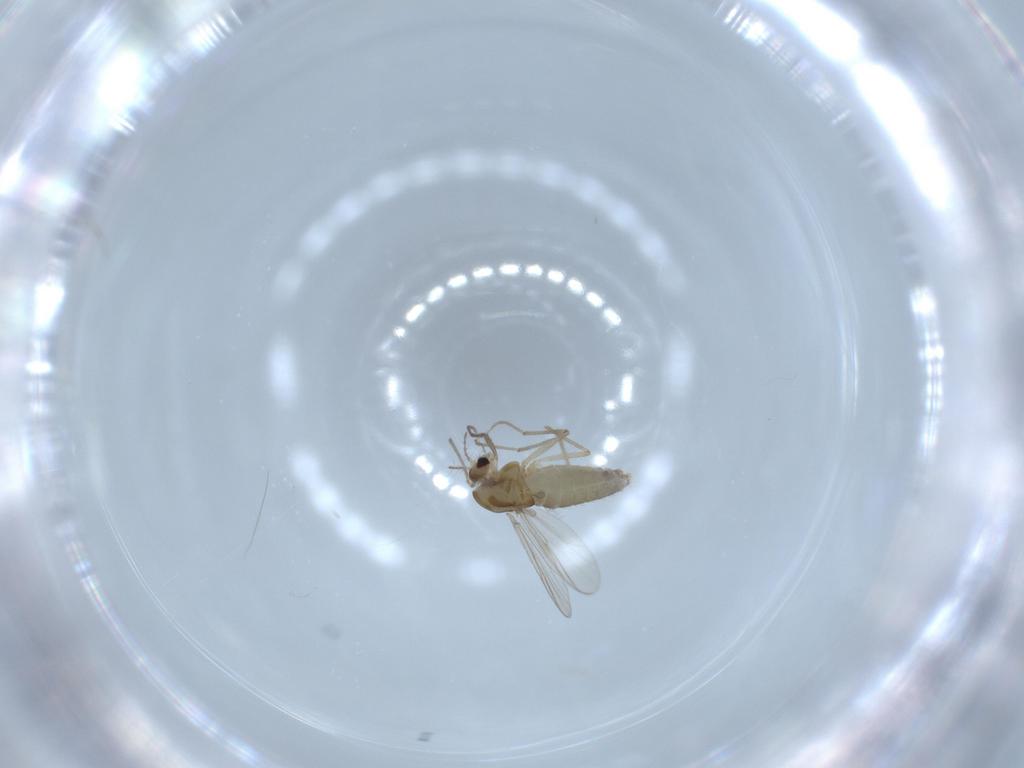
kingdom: Animalia
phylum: Arthropoda
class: Insecta
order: Diptera
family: Chironomidae
